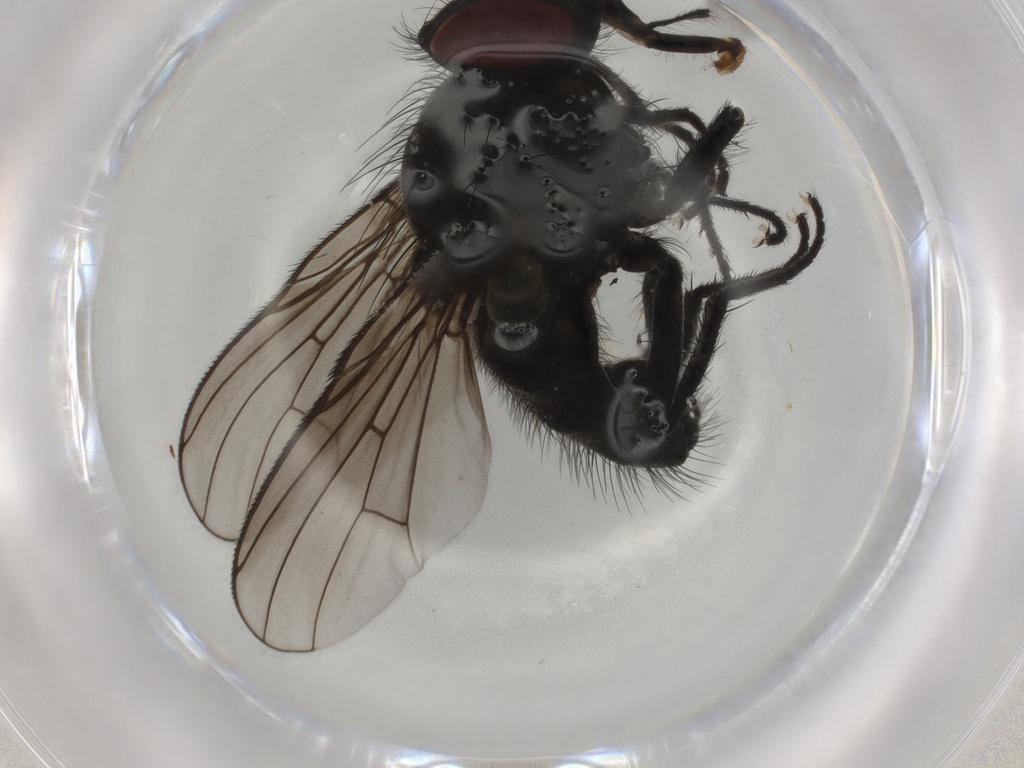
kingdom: Animalia
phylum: Arthropoda
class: Insecta
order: Diptera
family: Muscidae
